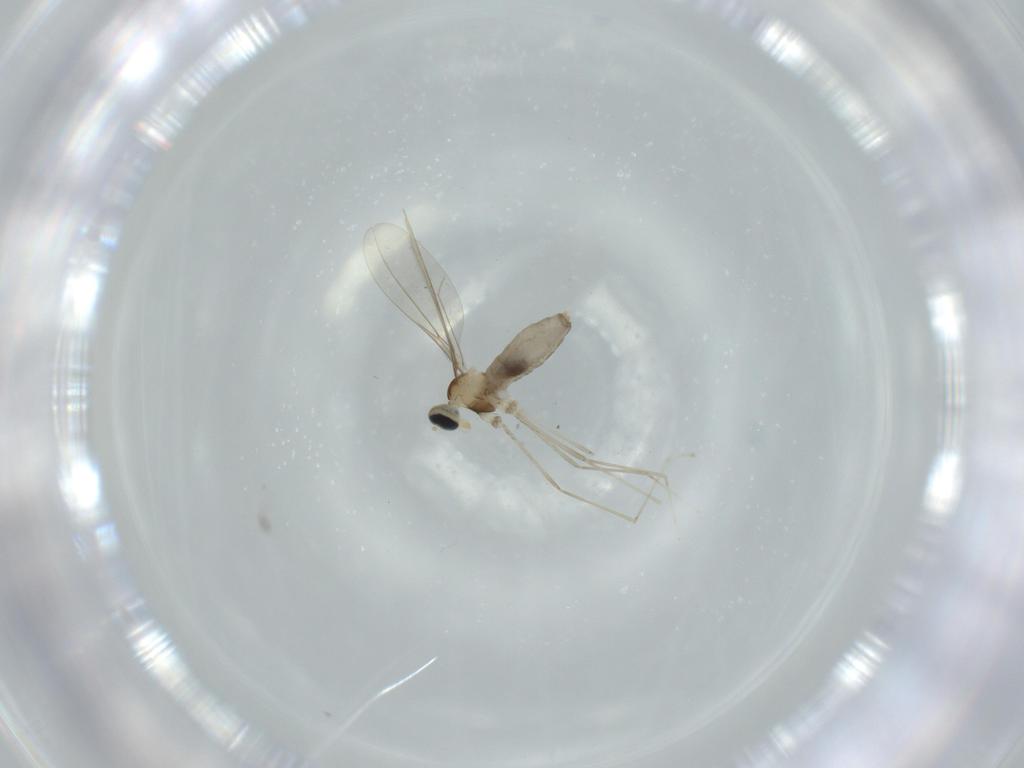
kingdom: Animalia
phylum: Arthropoda
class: Insecta
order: Diptera
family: Cecidomyiidae
